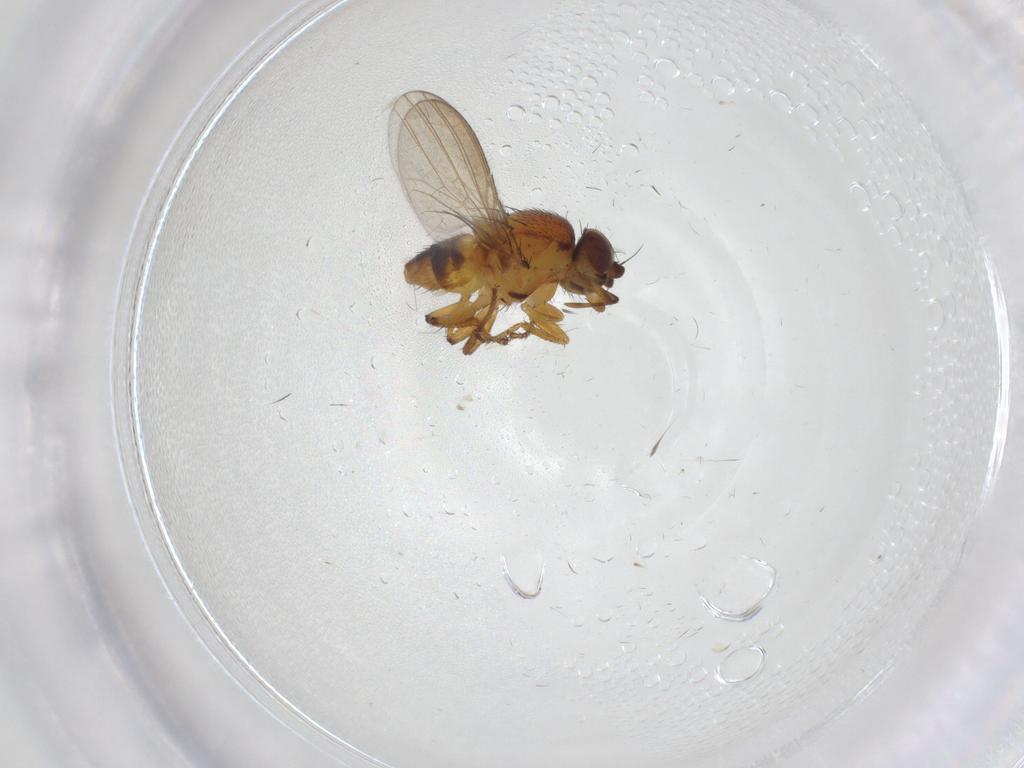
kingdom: Animalia
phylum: Arthropoda
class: Insecta
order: Diptera
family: Milichiidae
